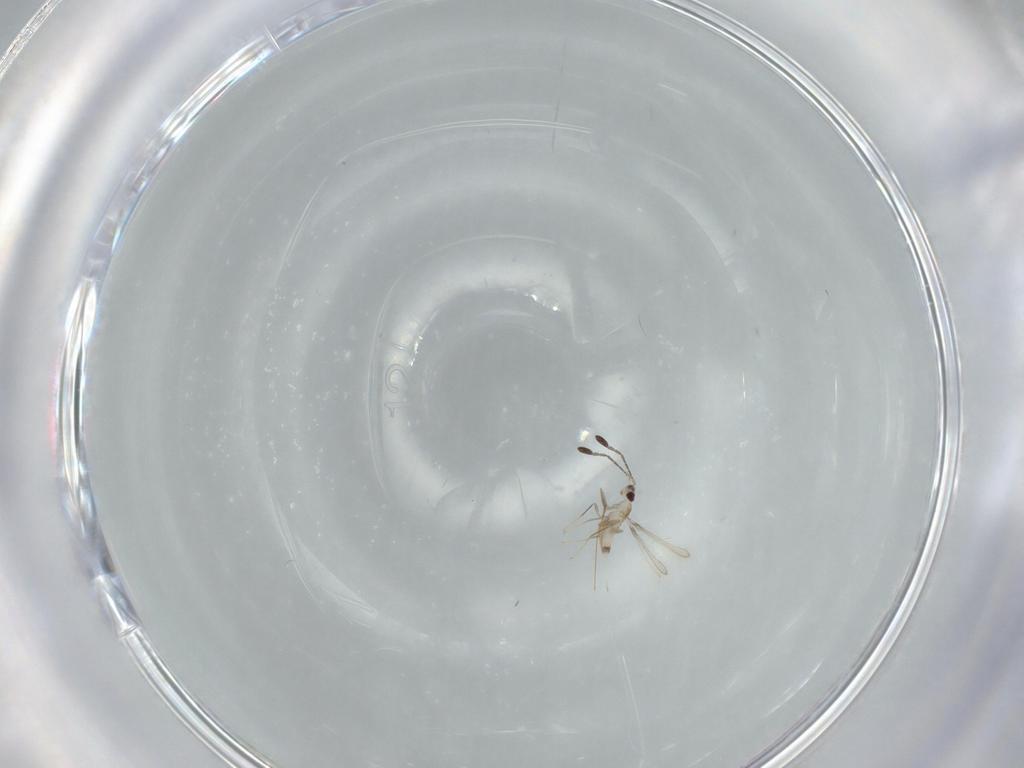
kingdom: Animalia
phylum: Arthropoda
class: Insecta
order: Hymenoptera
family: Mymaridae
